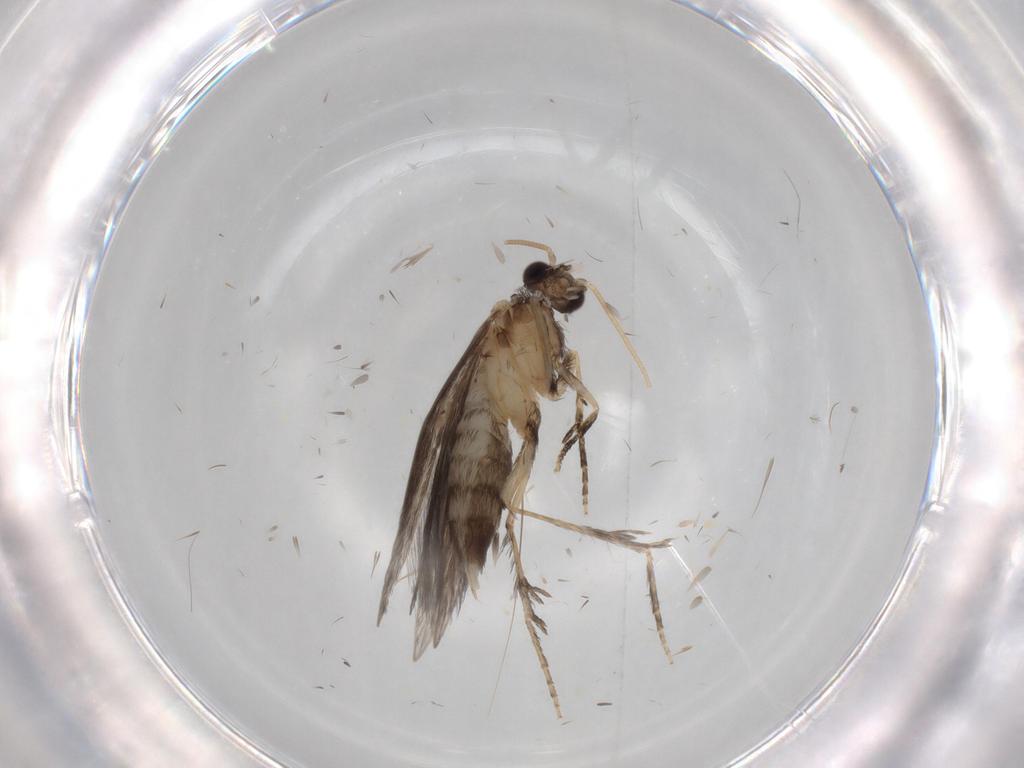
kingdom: Animalia
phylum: Arthropoda
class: Insecta
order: Trichoptera
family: Hydroptilidae
